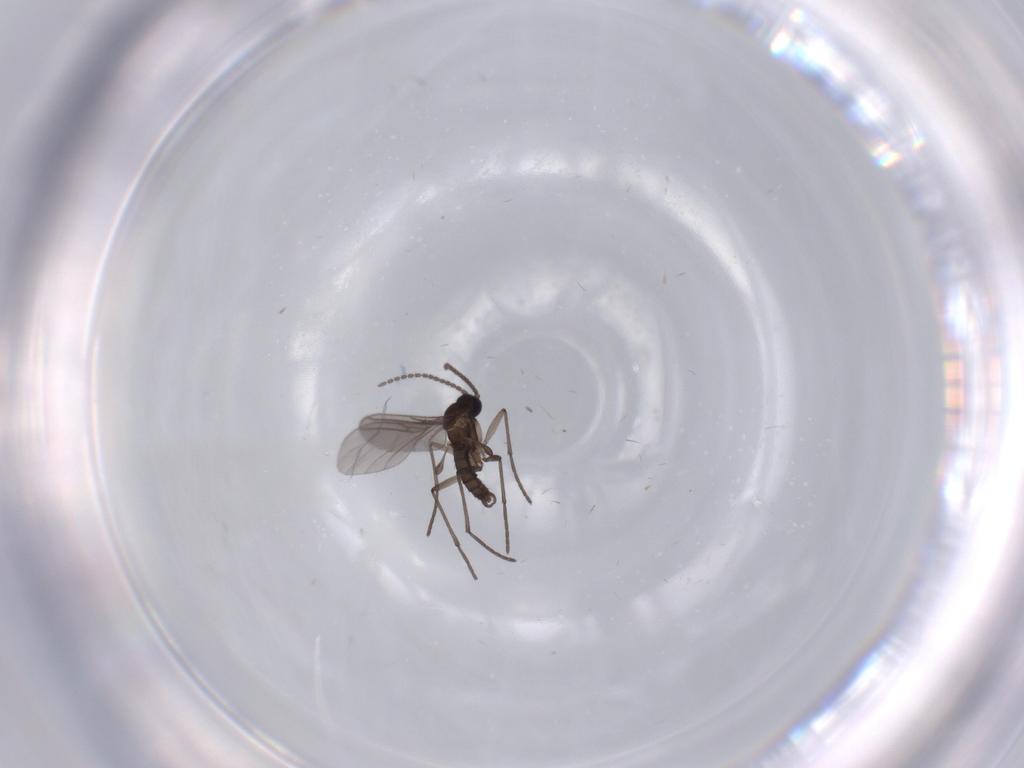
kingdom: Animalia
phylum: Arthropoda
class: Insecta
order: Diptera
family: Sciaridae
